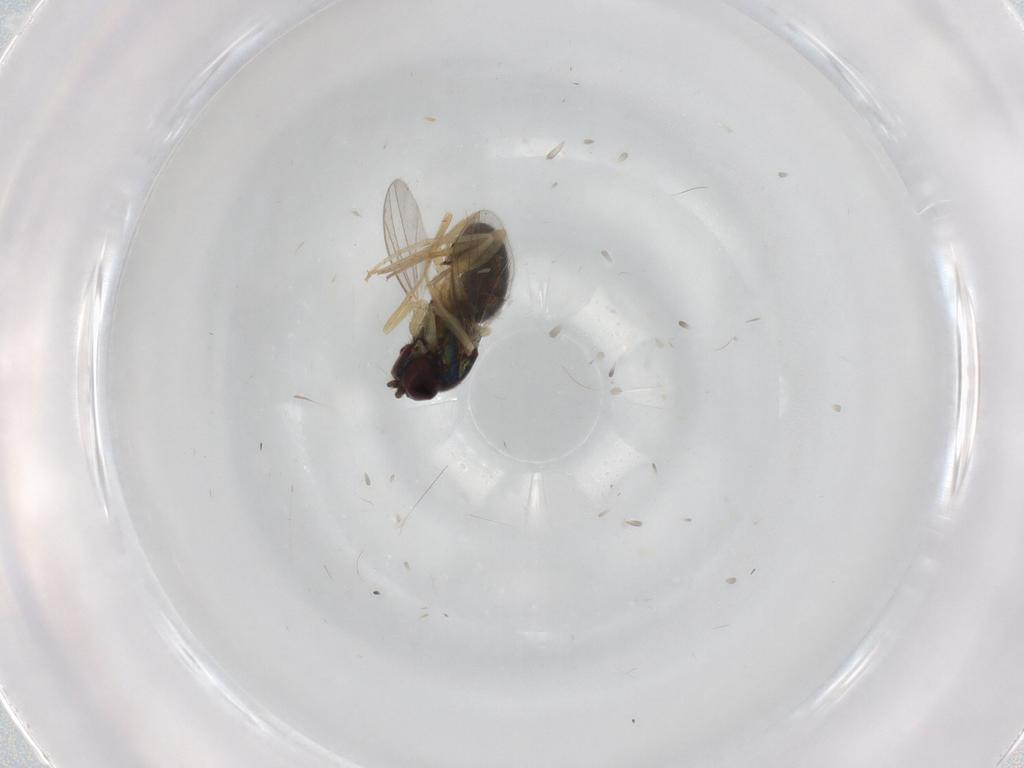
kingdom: Animalia
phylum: Arthropoda
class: Insecta
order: Diptera
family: Dolichopodidae
